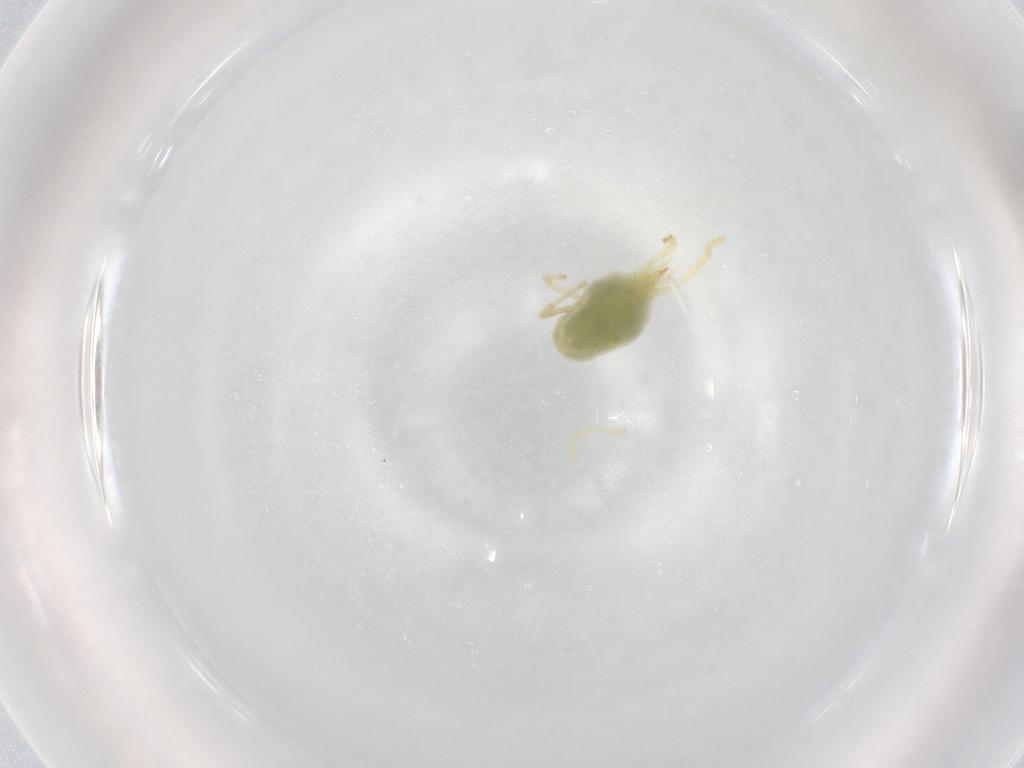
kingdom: Animalia
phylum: Arthropoda
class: Arachnida
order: Trombidiformes
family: Erythraeidae
